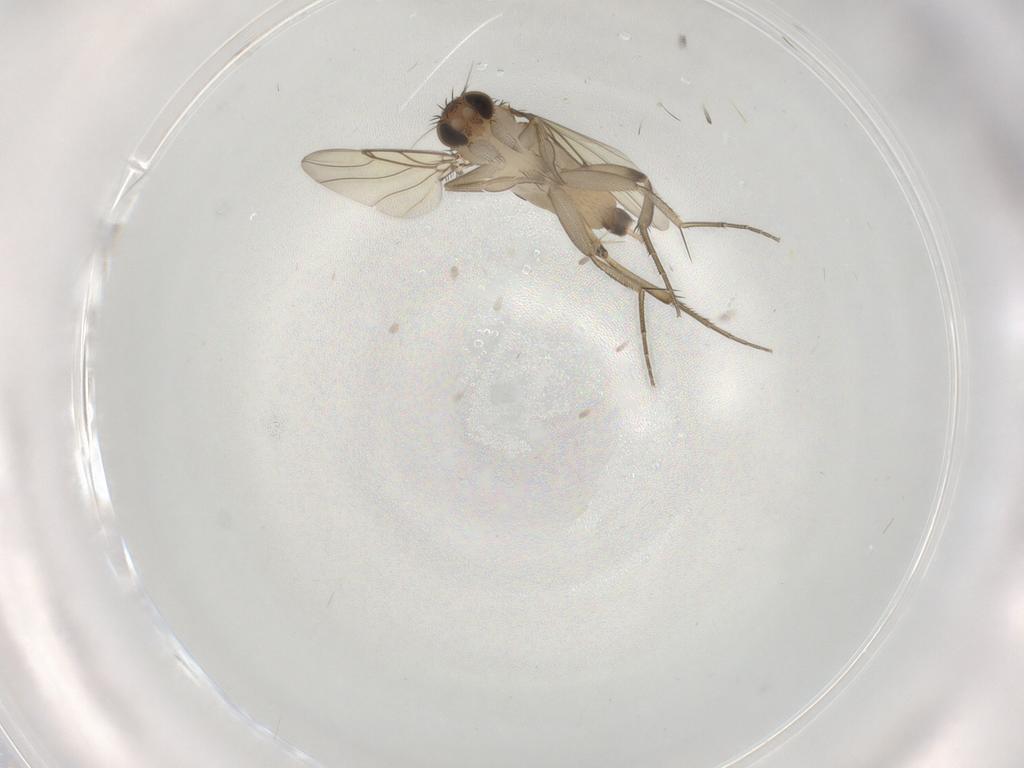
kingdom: Animalia
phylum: Arthropoda
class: Insecta
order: Diptera
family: Phoridae
